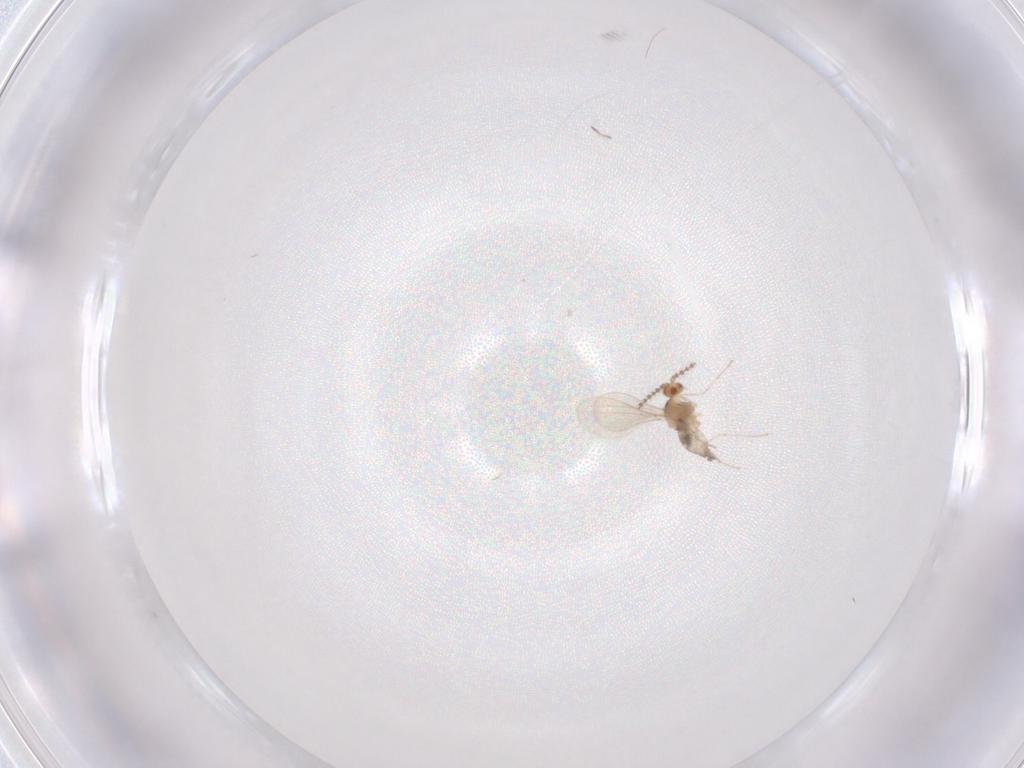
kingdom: Animalia
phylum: Arthropoda
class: Insecta
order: Diptera
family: Cecidomyiidae
